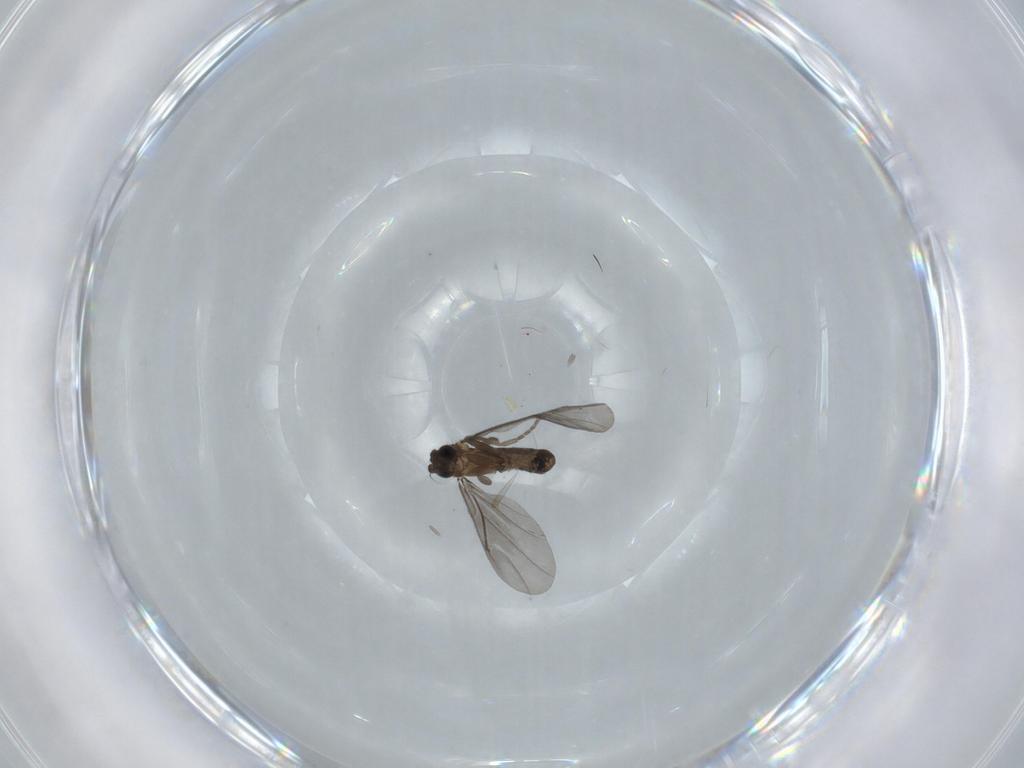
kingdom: Animalia
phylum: Arthropoda
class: Insecta
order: Diptera
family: Phoridae
